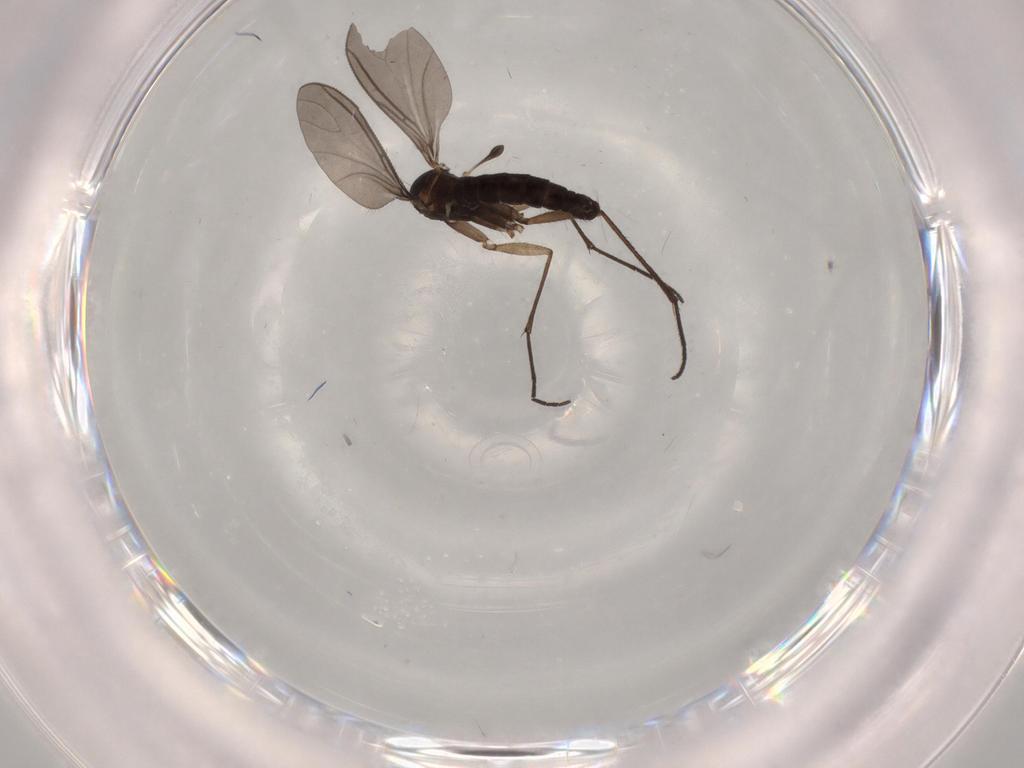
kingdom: Animalia
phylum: Arthropoda
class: Insecta
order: Diptera
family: Sciaridae
